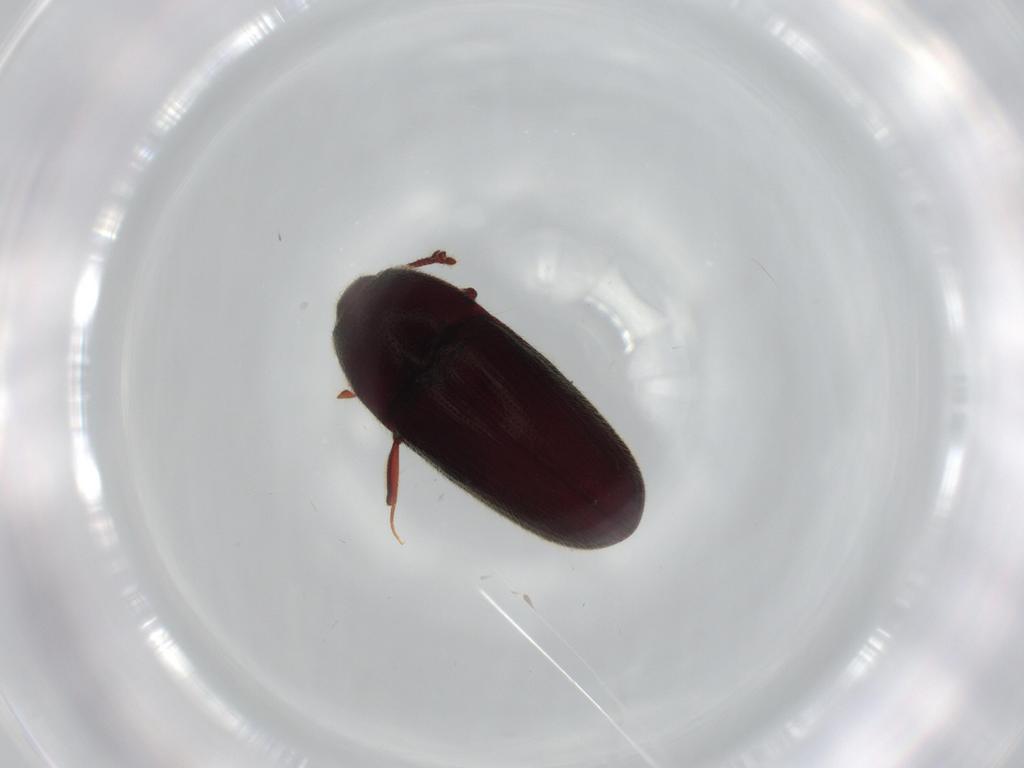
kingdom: Animalia
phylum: Arthropoda
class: Insecta
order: Coleoptera
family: Throscidae
